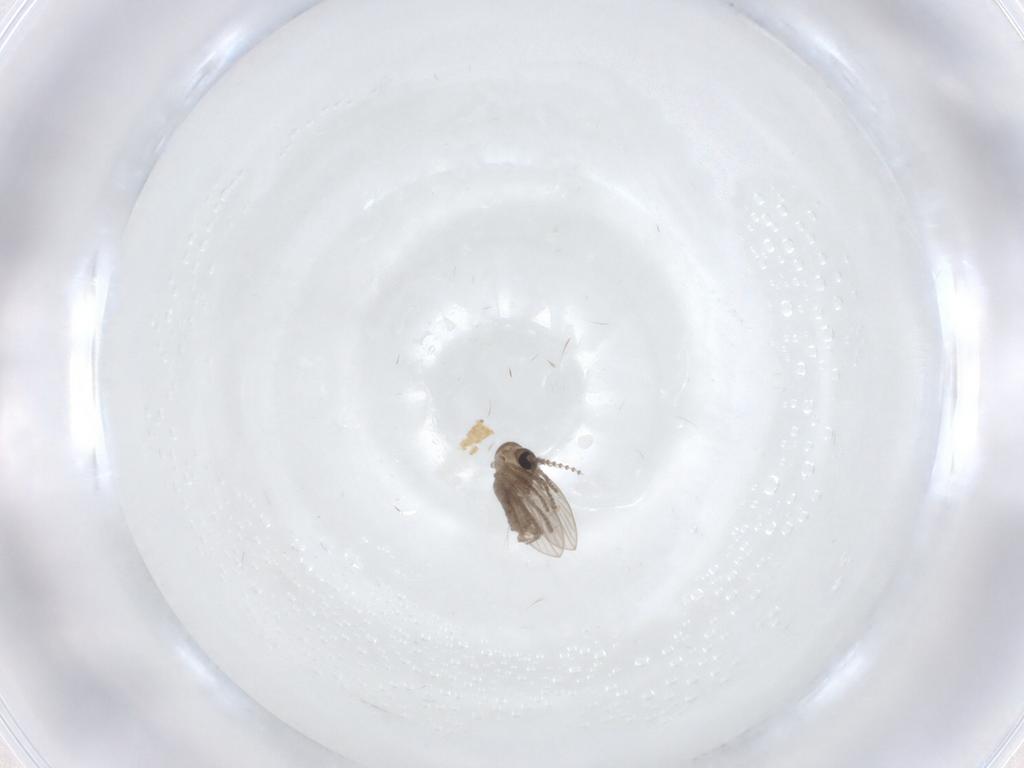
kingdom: Animalia
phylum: Arthropoda
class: Insecta
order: Diptera
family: Psychodidae
